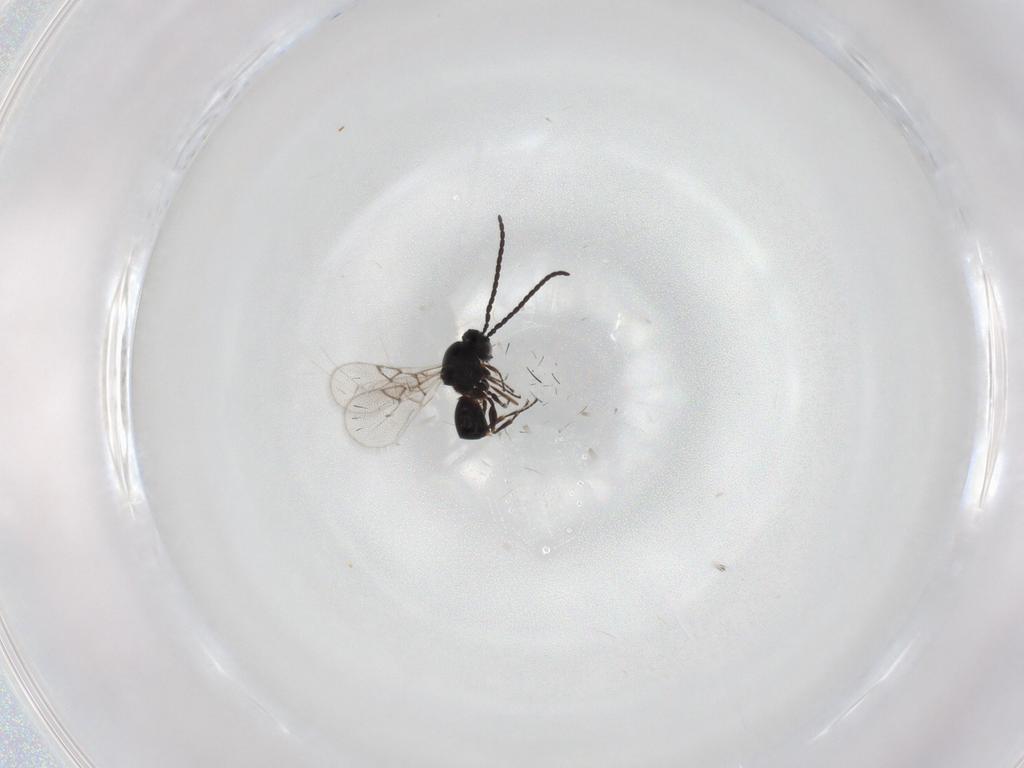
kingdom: Animalia
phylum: Arthropoda
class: Insecta
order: Hymenoptera
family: Figitidae
